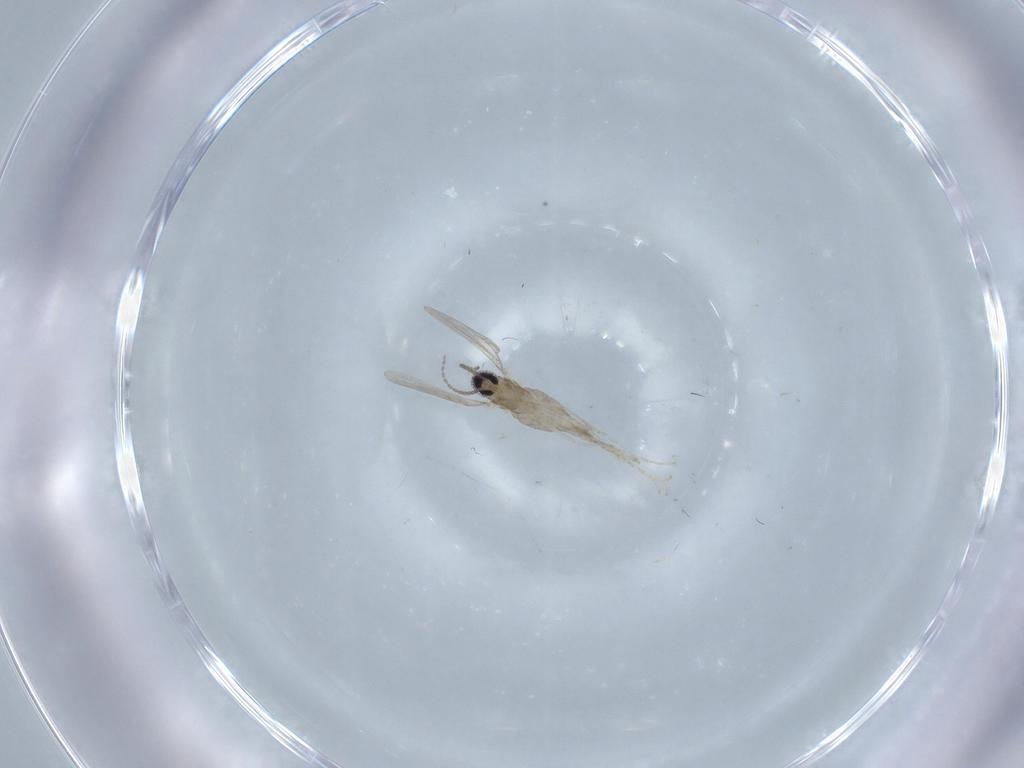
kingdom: Animalia
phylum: Arthropoda
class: Insecta
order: Diptera
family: Cecidomyiidae
